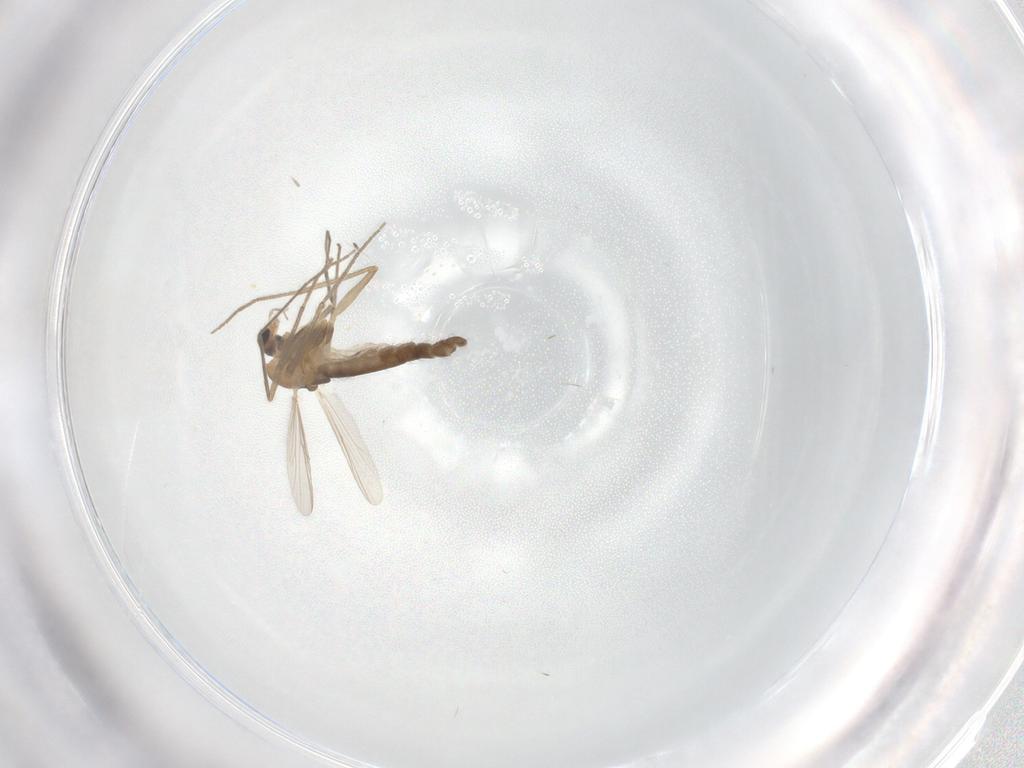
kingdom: Animalia
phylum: Arthropoda
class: Insecta
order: Diptera
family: Chironomidae
